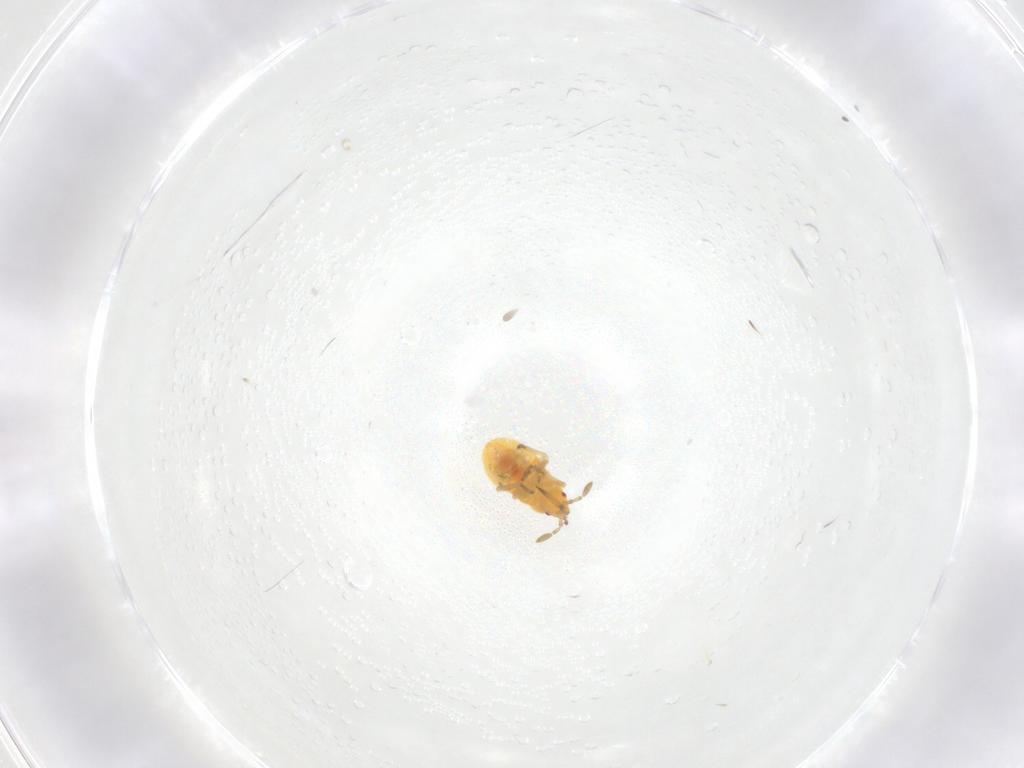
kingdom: Animalia
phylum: Arthropoda
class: Insecta
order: Hemiptera
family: Anthocoridae
